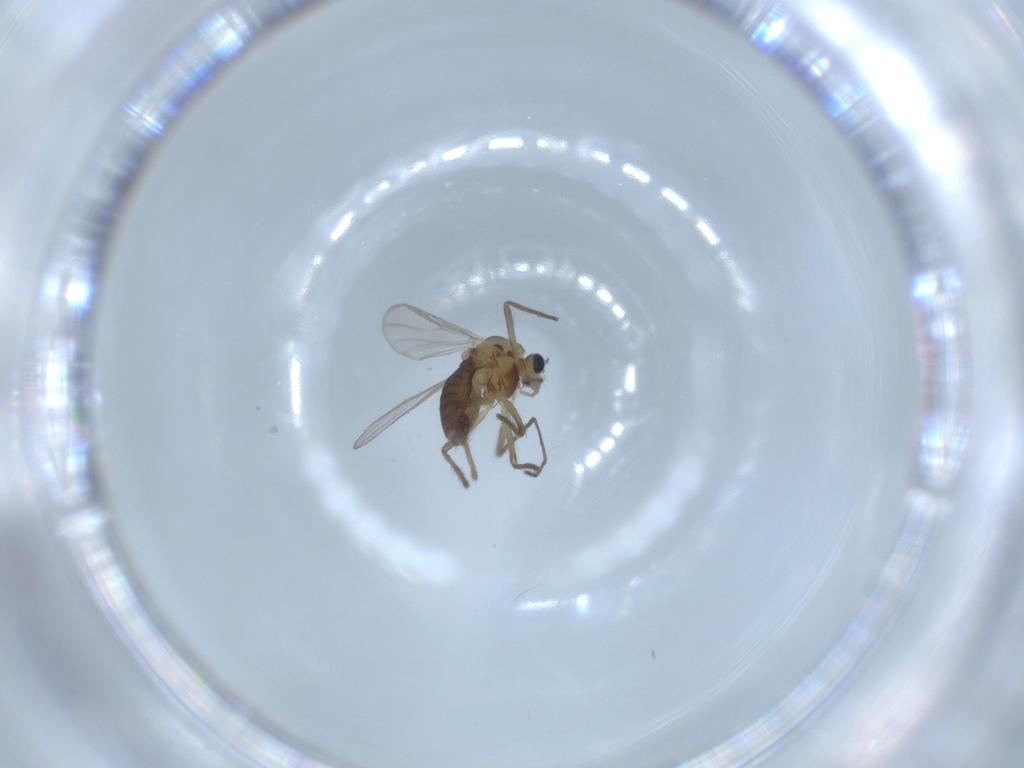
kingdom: Animalia
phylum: Arthropoda
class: Insecta
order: Diptera
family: Chironomidae
